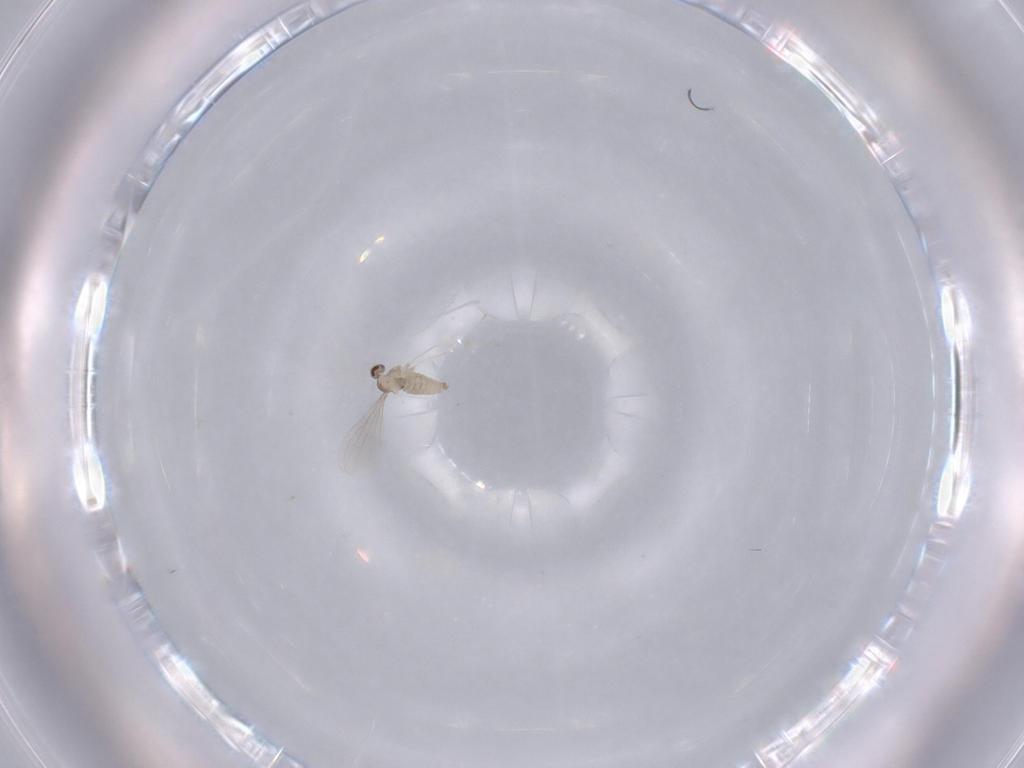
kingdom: Animalia
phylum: Arthropoda
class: Insecta
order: Diptera
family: Cecidomyiidae
